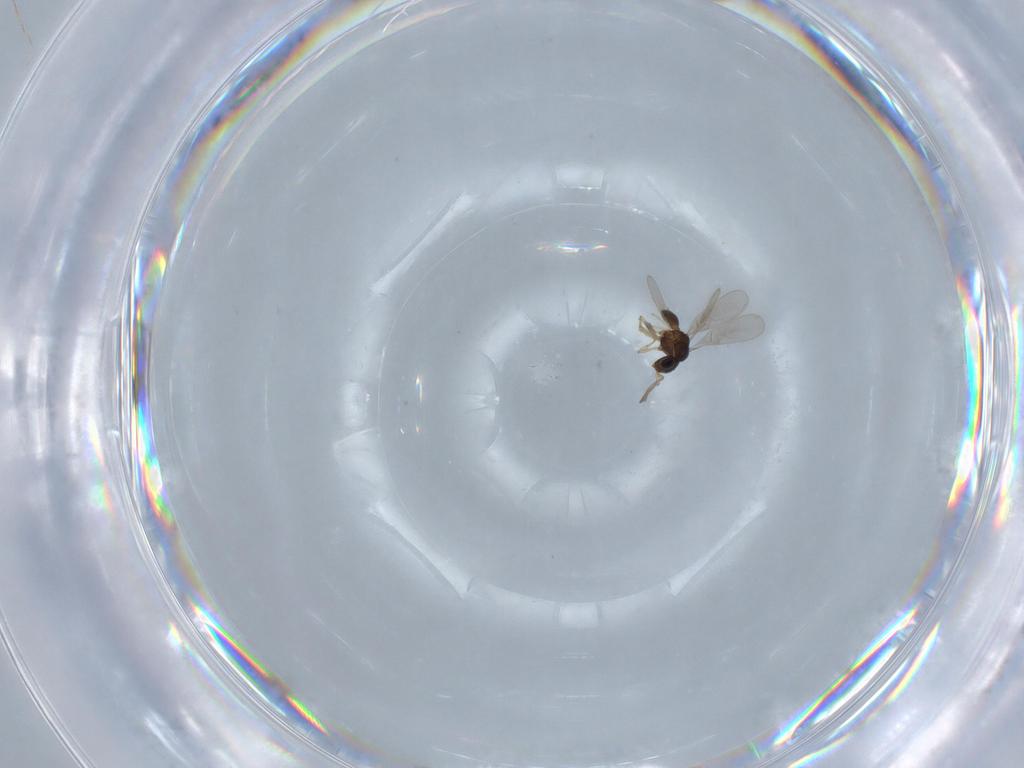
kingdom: Animalia
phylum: Arthropoda
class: Insecta
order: Hymenoptera
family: Scelionidae
